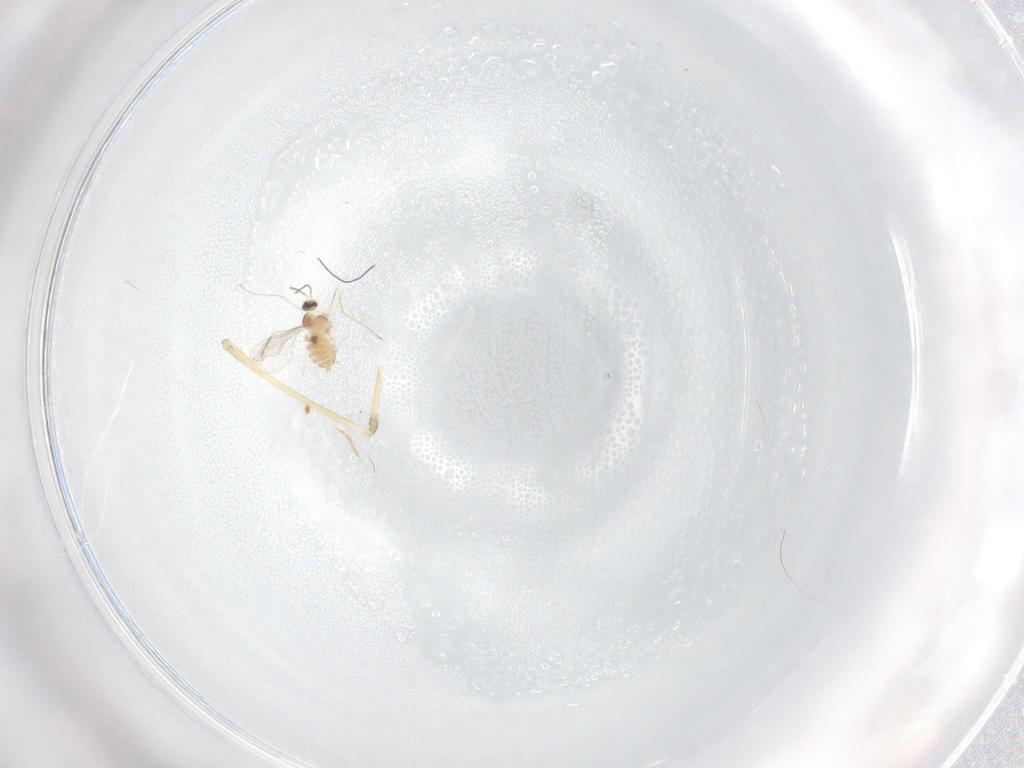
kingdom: Animalia
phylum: Arthropoda
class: Insecta
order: Diptera
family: Cecidomyiidae
